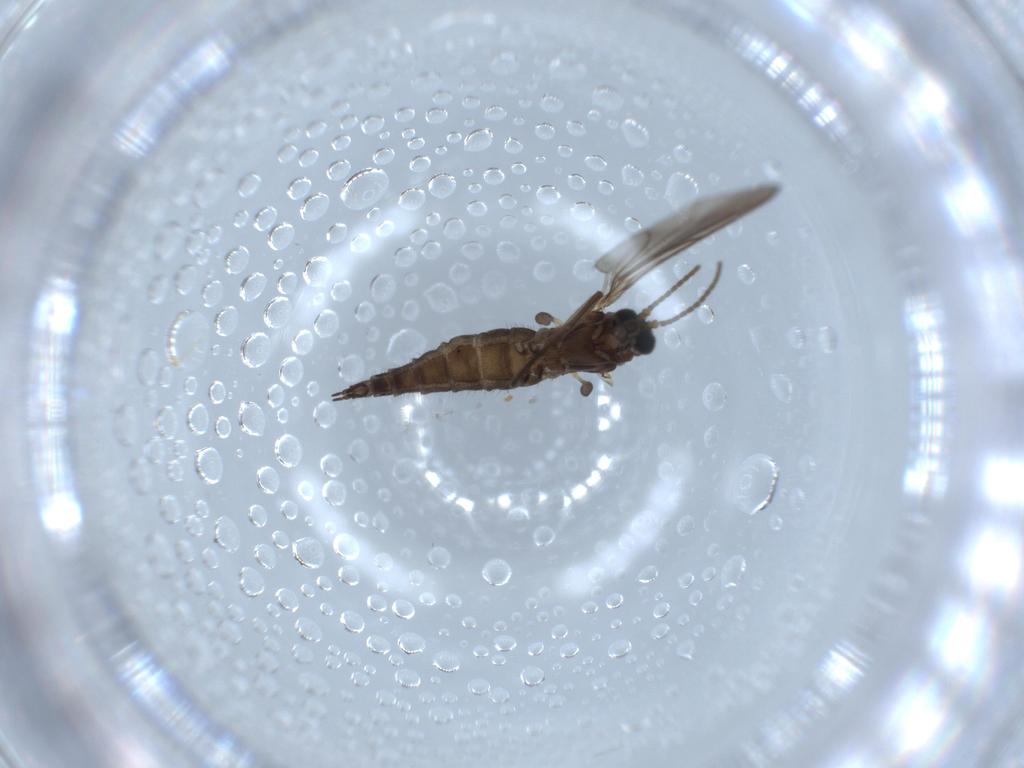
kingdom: Animalia
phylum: Arthropoda
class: Insecta
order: Diptera
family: Sciaridae
